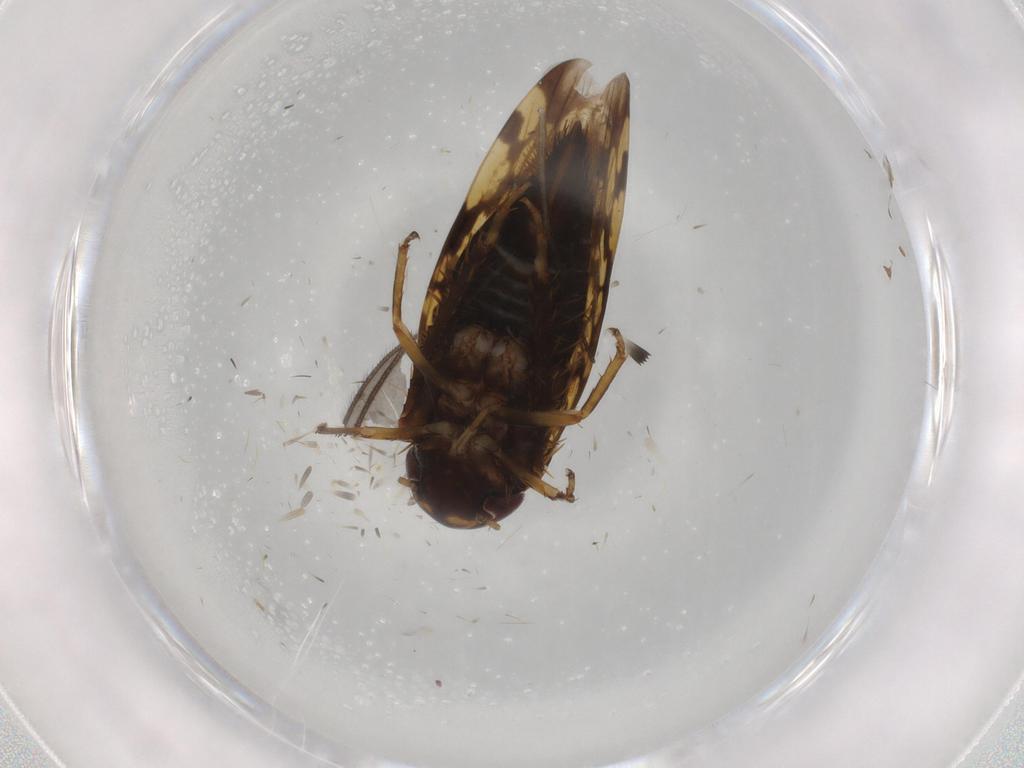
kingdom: Animalia
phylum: Arthropoda
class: Insecta
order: Hemiptera
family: Cicadellidae
